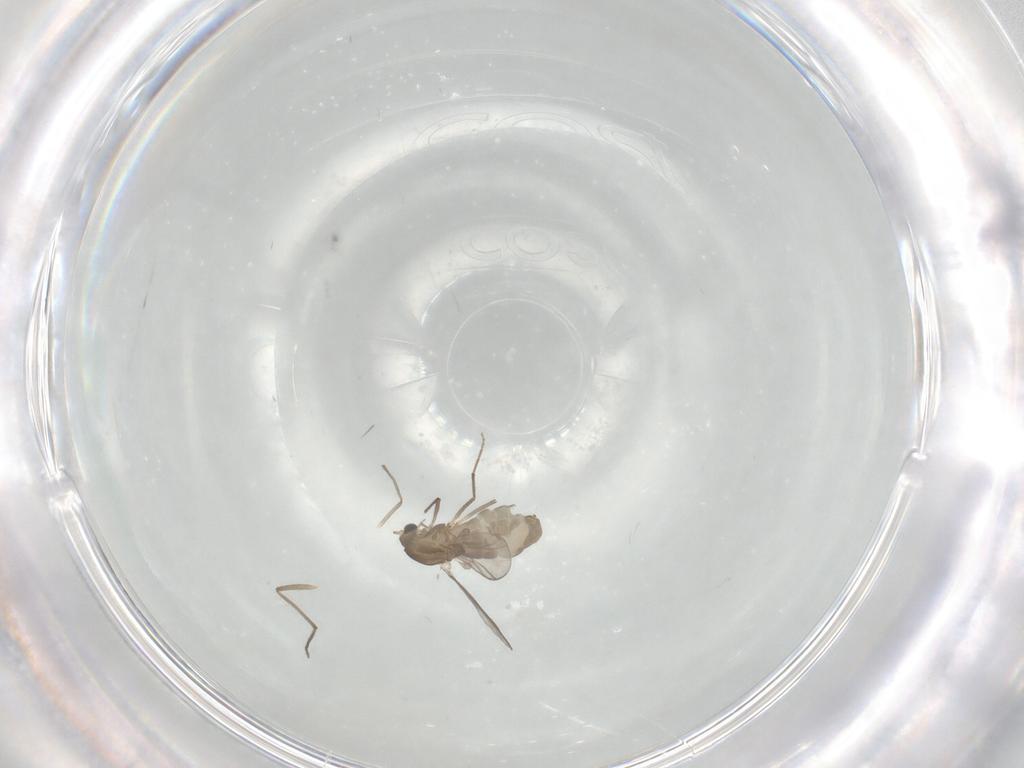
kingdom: Animalia
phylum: Arthropoda
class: Insecta
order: Diptera
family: Chironomidae
